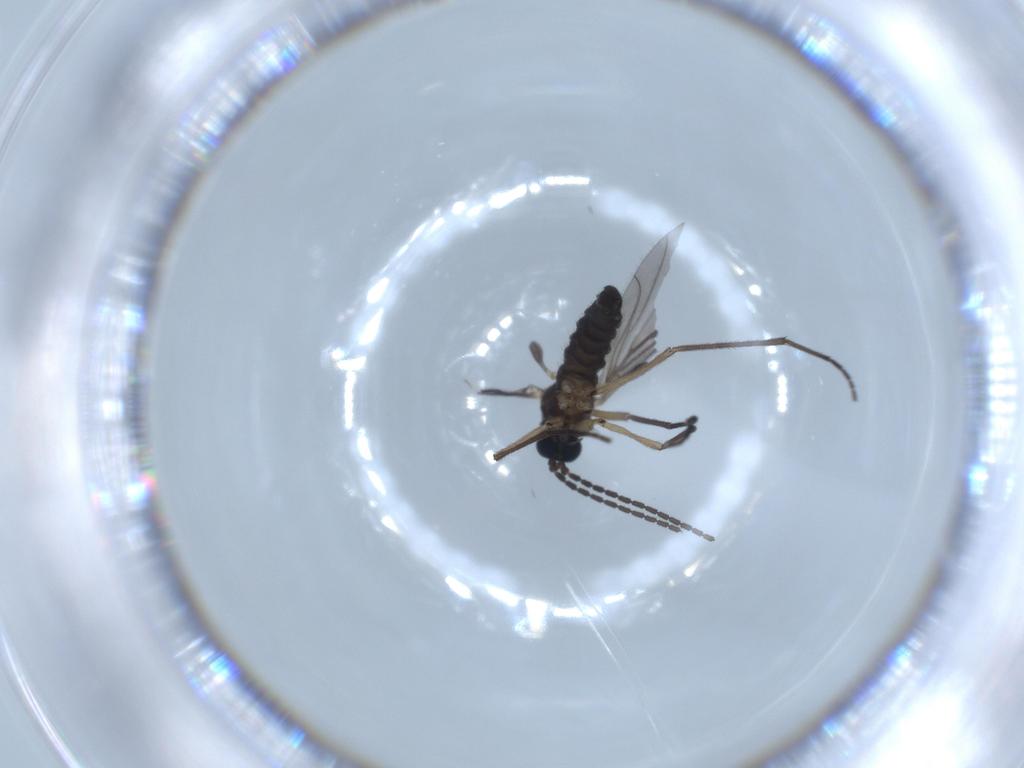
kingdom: Animalia
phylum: Arthropoda
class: Insecta
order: Diptera
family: Sciaridae
